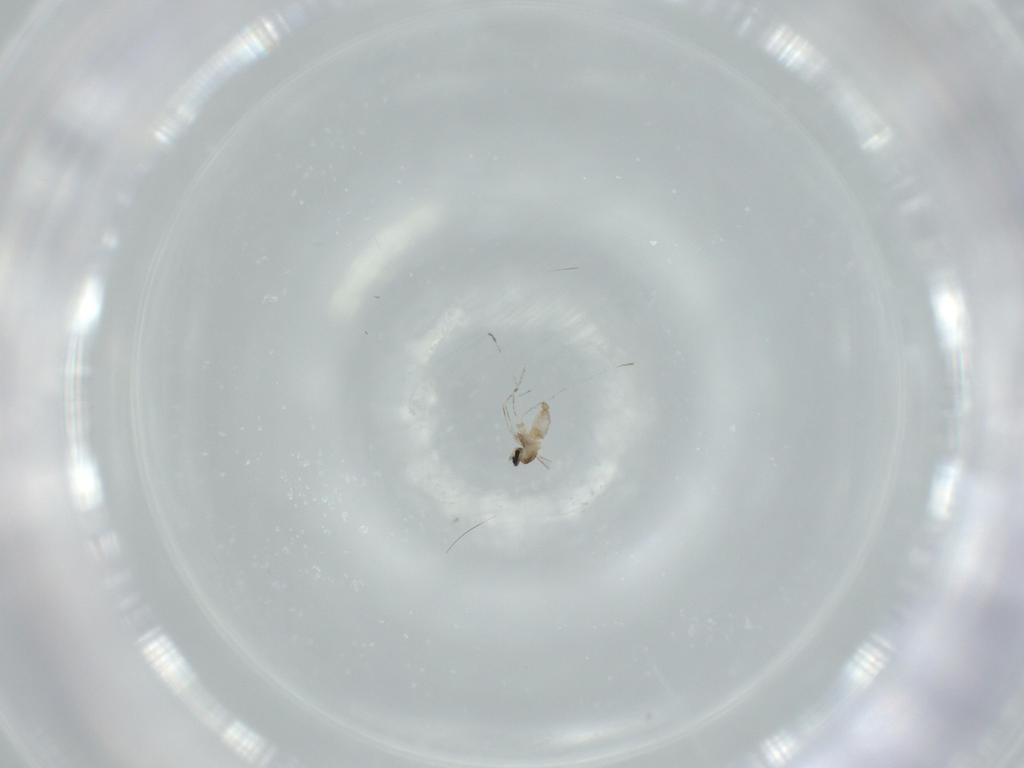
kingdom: Animalia
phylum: Arthropoda
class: Insecta
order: Diptera
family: Cecidomyiidae
